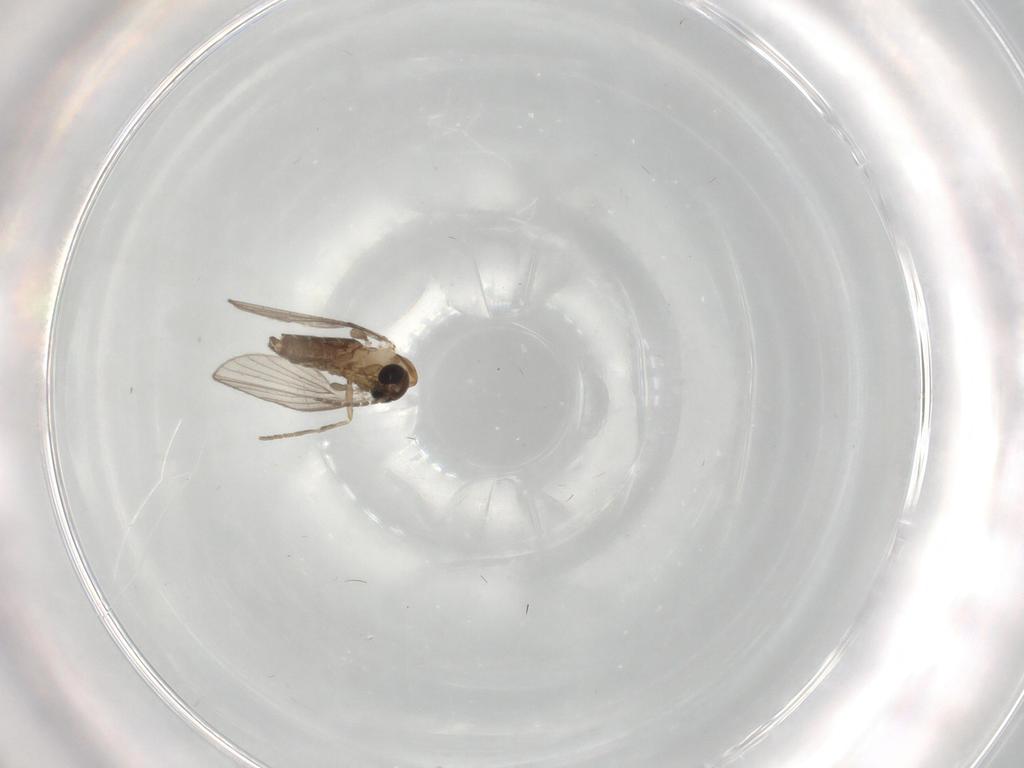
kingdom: Animalia
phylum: Arthropoda
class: Insecta
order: Diptera
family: Psychodidae
